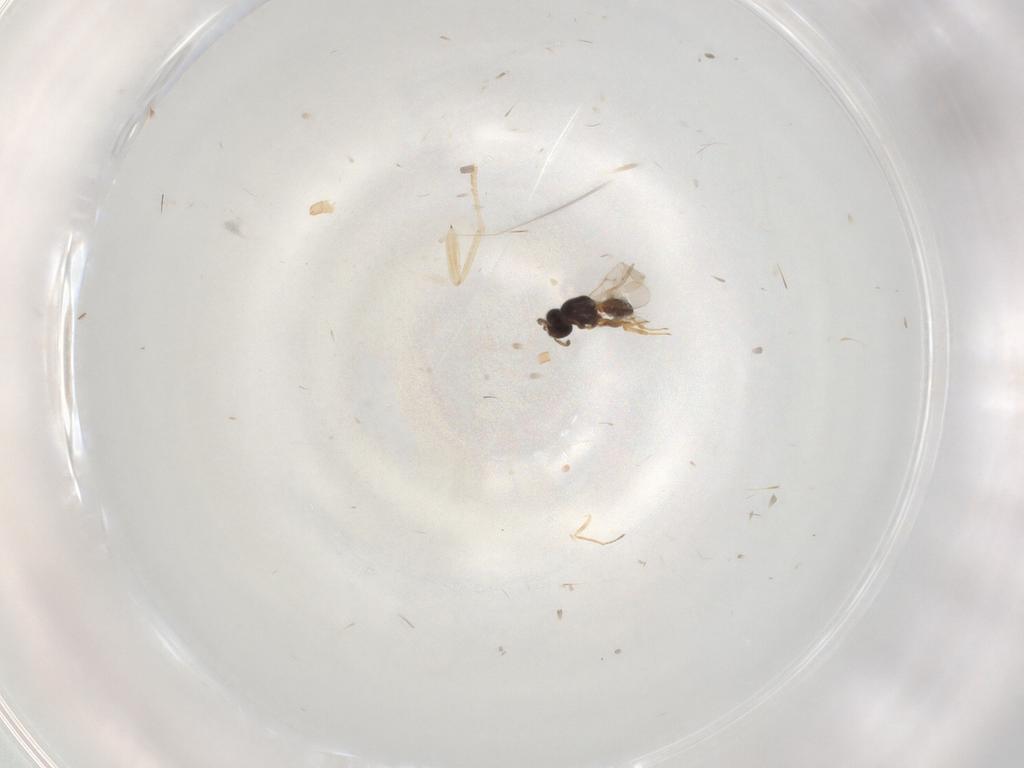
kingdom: Animalia
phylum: Arthropoda
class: Insecta
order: Hymenoptera
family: Scelionidae
